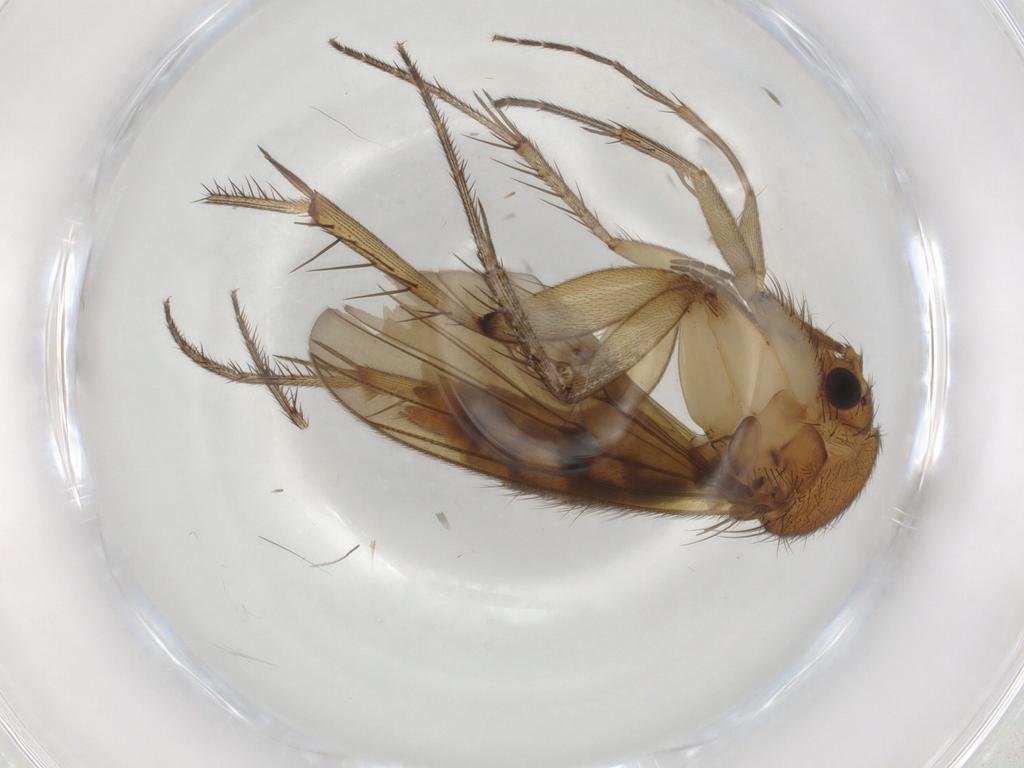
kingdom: Animalia
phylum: Arthropoda
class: Insecta
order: Diptera
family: Mycetophilidae
